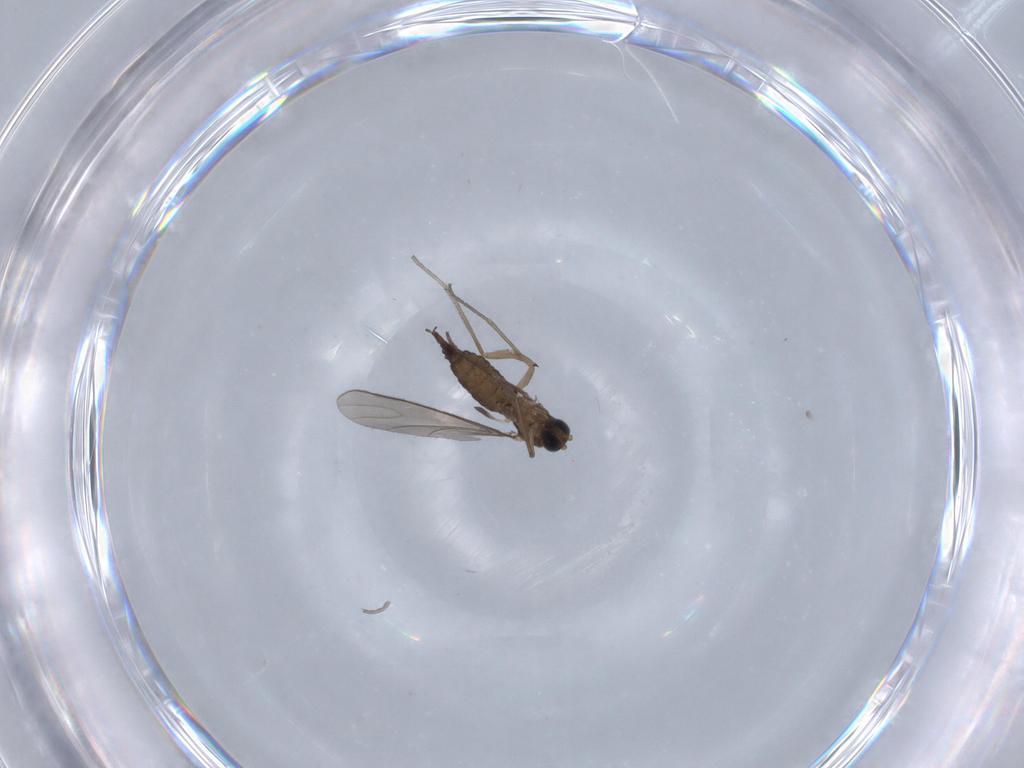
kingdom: Animalia
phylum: Arthropoda
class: Insecta
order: Diptera
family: Sciaridae
